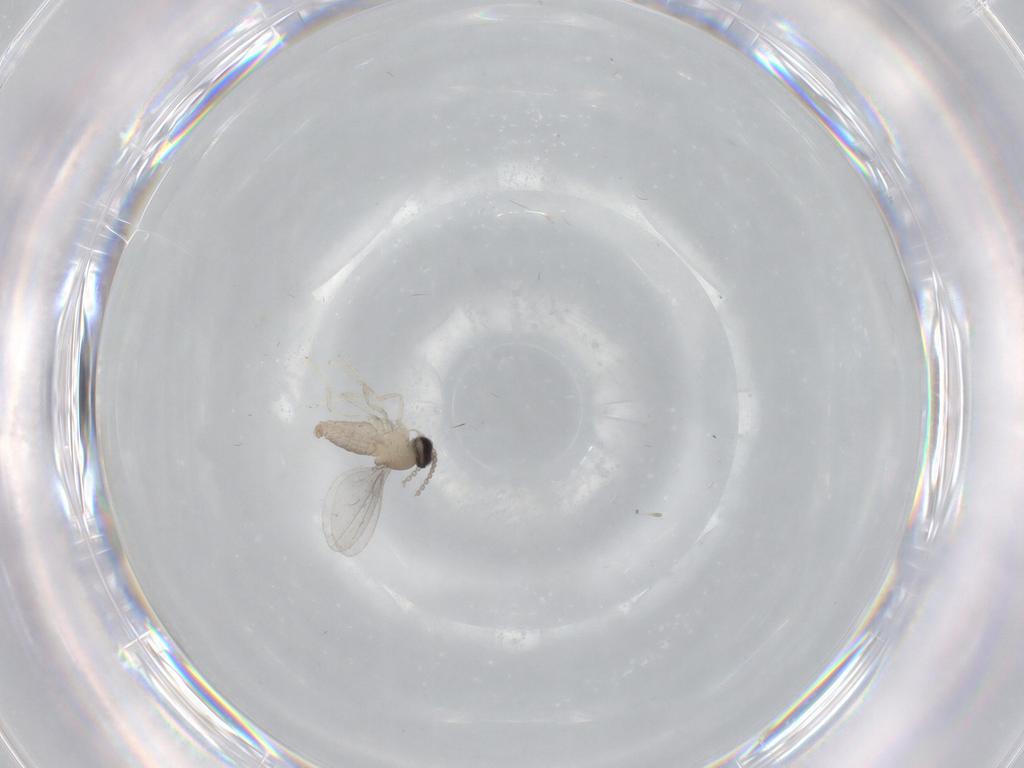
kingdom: Animalia
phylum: Arthropoda
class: Insecta
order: Diptera
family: Cecidomyiidae
